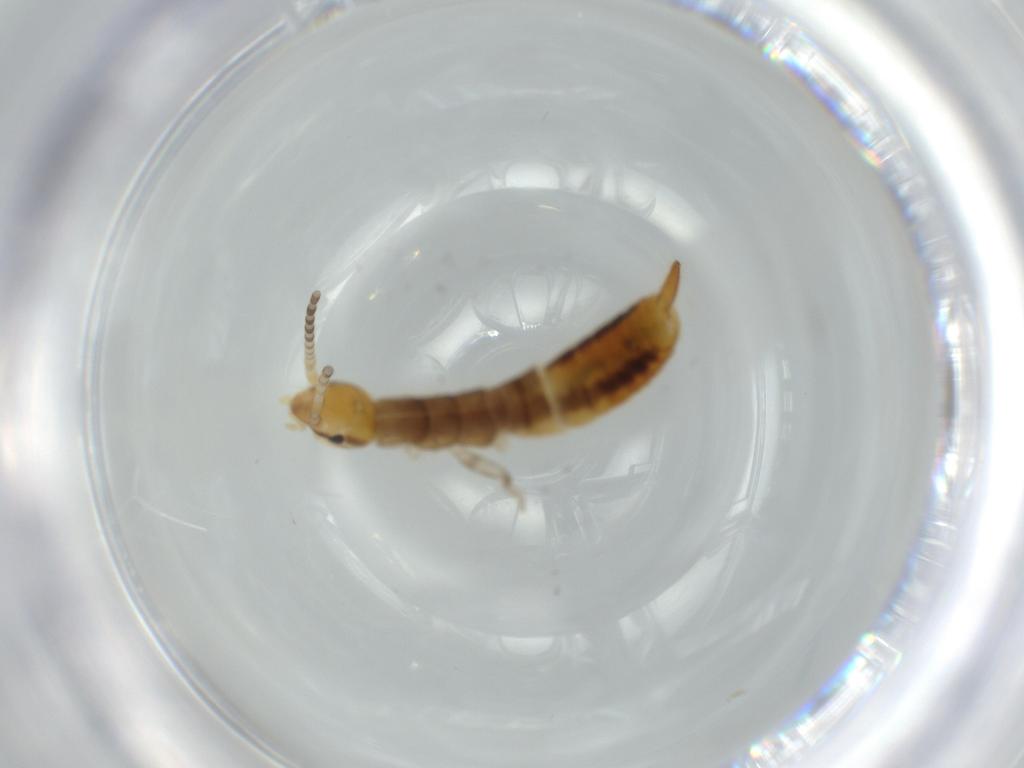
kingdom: Animalia
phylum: Arthropoda
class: Insecta
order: Dermaptera
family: Forficulidae
